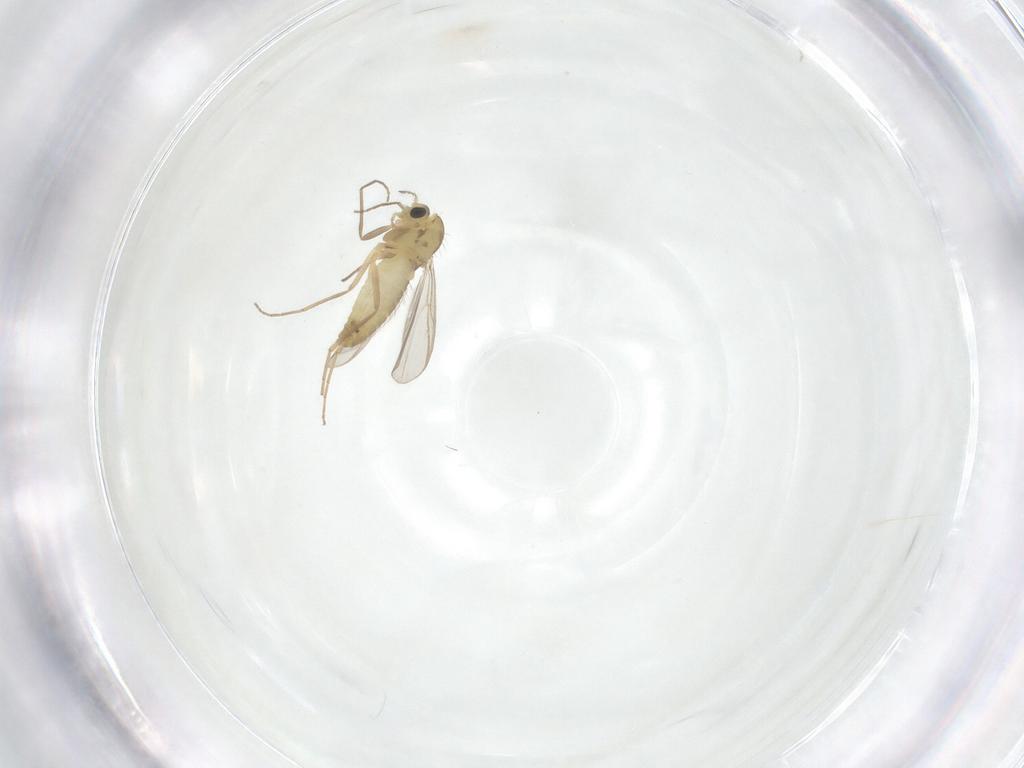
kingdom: Animalia
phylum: Arthropoda
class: Insecta
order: Diptera
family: Chironomidae
